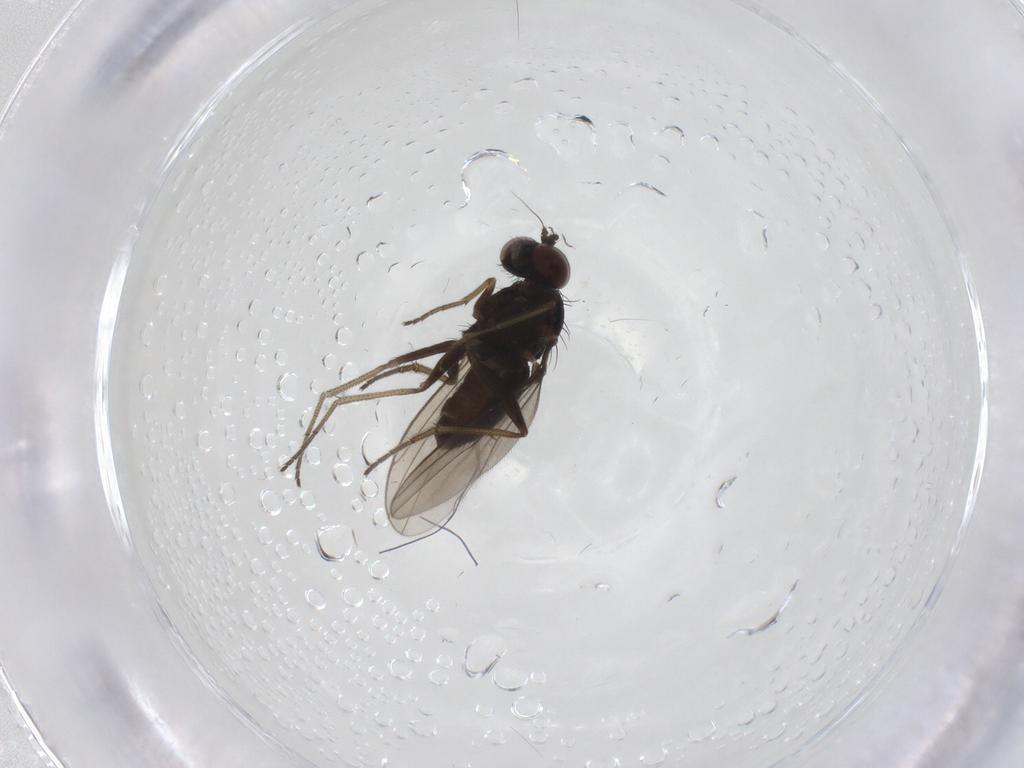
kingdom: Animalia
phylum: Arthropoda
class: Insecta
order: Diptera
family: Dolichopodidae
